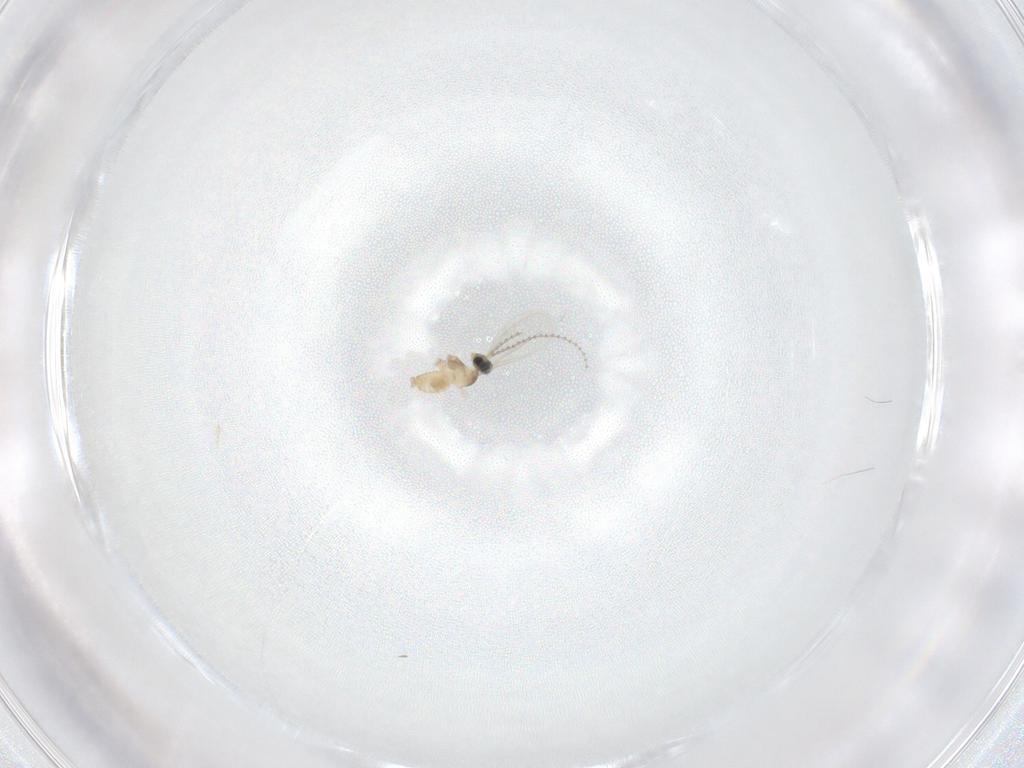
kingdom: Animalia
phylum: Arthropoda
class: Insecta
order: Diptera
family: Cecidomyiidae
